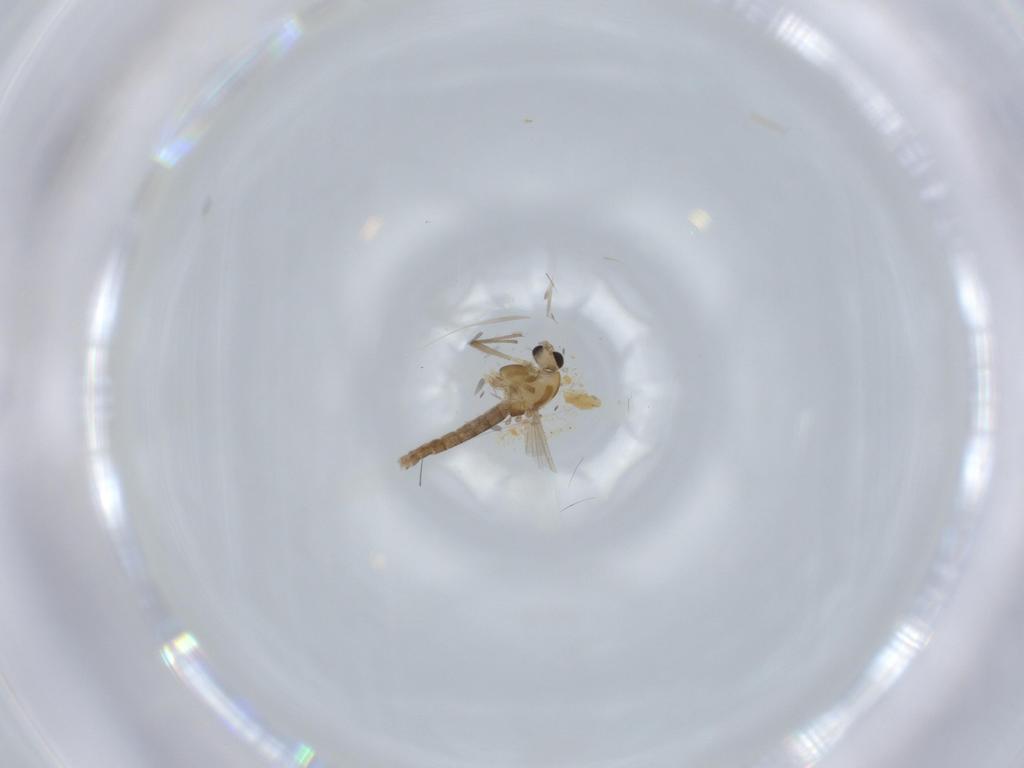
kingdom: Animalia
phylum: Arthropoda
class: Insecta
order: Diptera
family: Chironomidae
